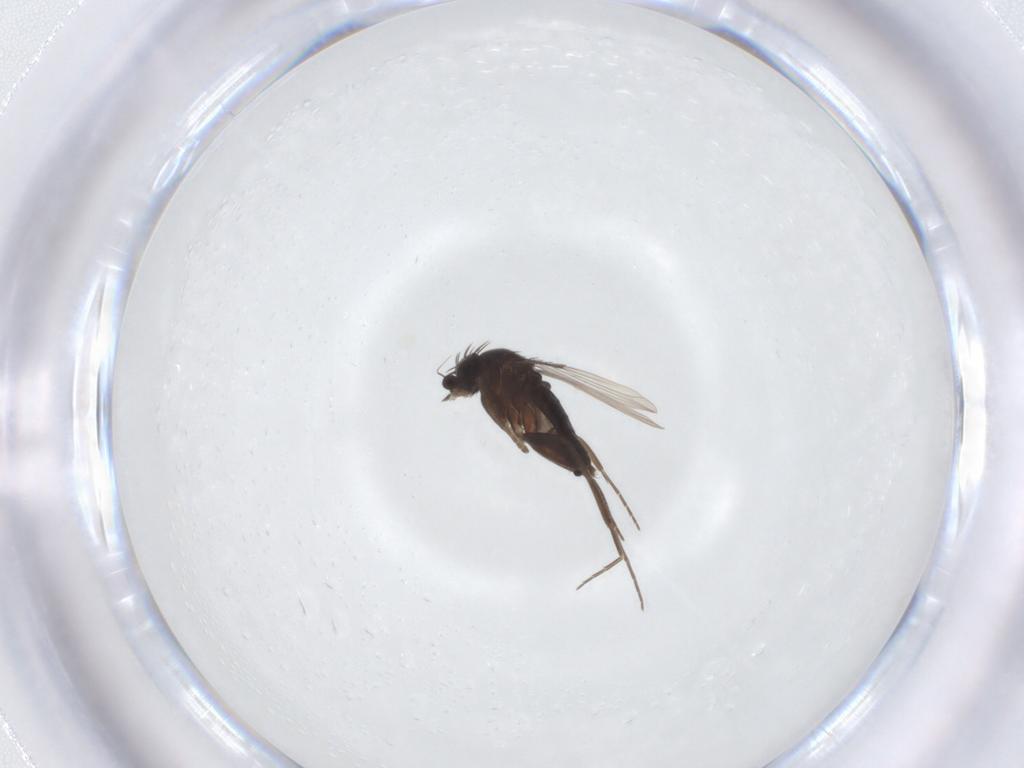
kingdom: Animalia
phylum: Arthropoda
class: Insecta
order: Diptera
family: Phoridae
